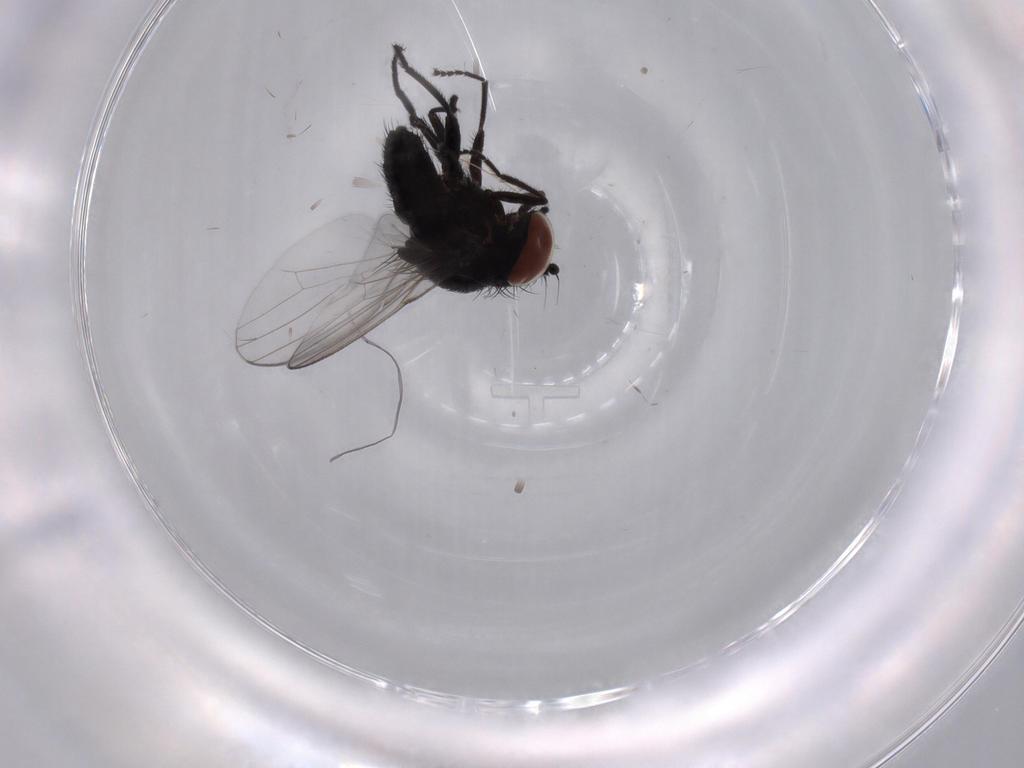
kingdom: Animalia
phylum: Arthropoda
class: Insecta
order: Diptera
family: Milichiidae
